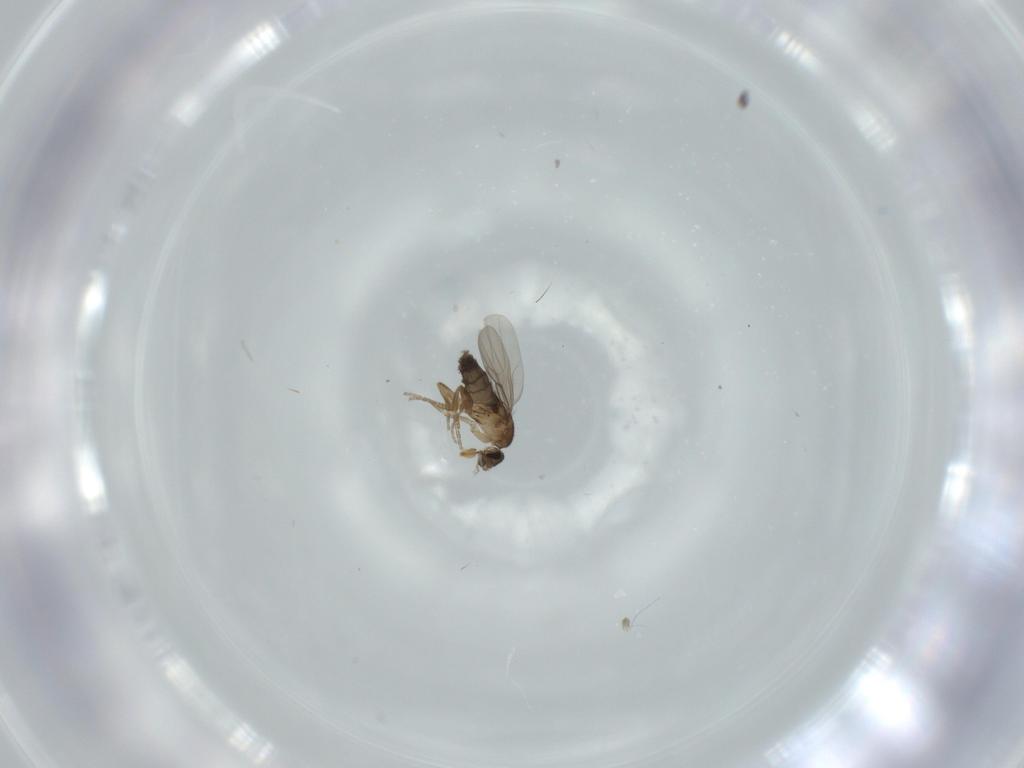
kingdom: Animalia
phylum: Arthropoda
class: Insecta
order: Diptera
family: Phoridae
